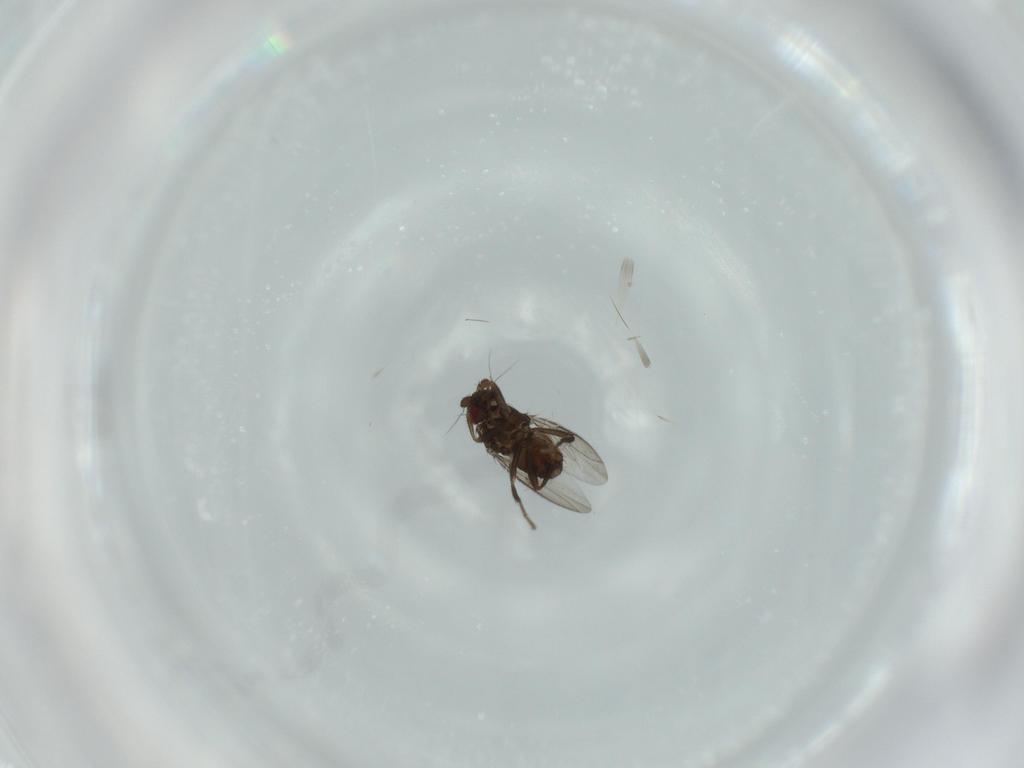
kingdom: Animalia
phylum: Arthropoda
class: Insecta
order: Diptera
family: Sphaeroceridae
